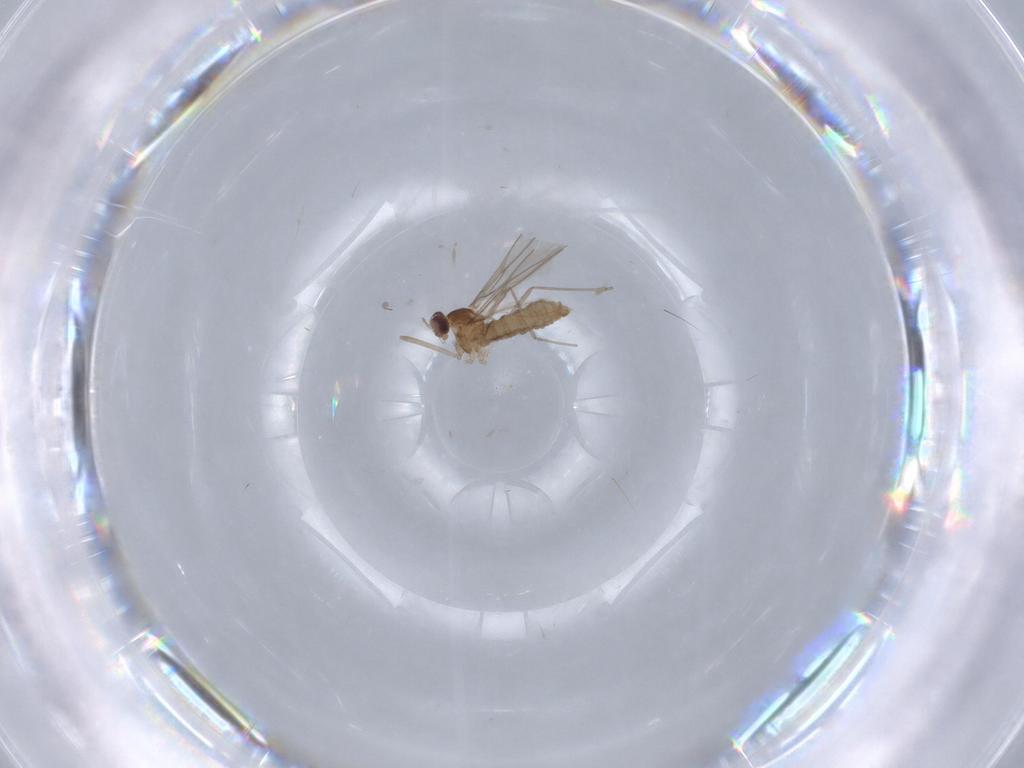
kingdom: Animalia
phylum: Arthropoda
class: Insecta
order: Diptera
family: Cecidomyiidae
